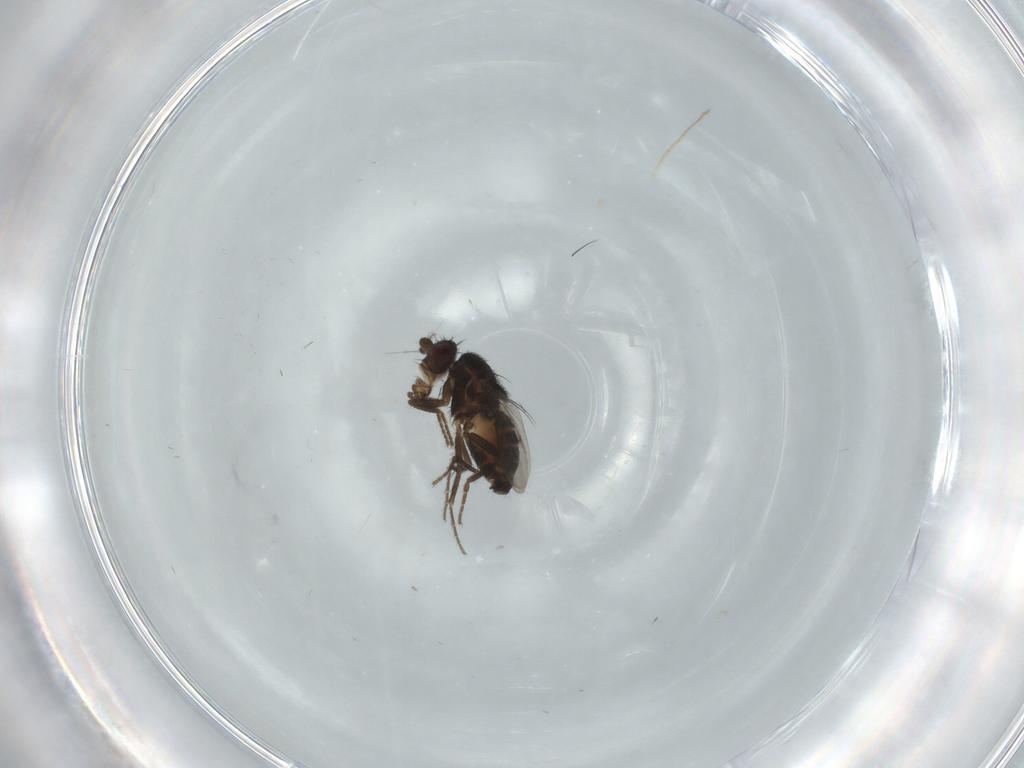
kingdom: Animalia
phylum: Arthropoda
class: Insecta
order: Diptera
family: Sphaeroceridae
